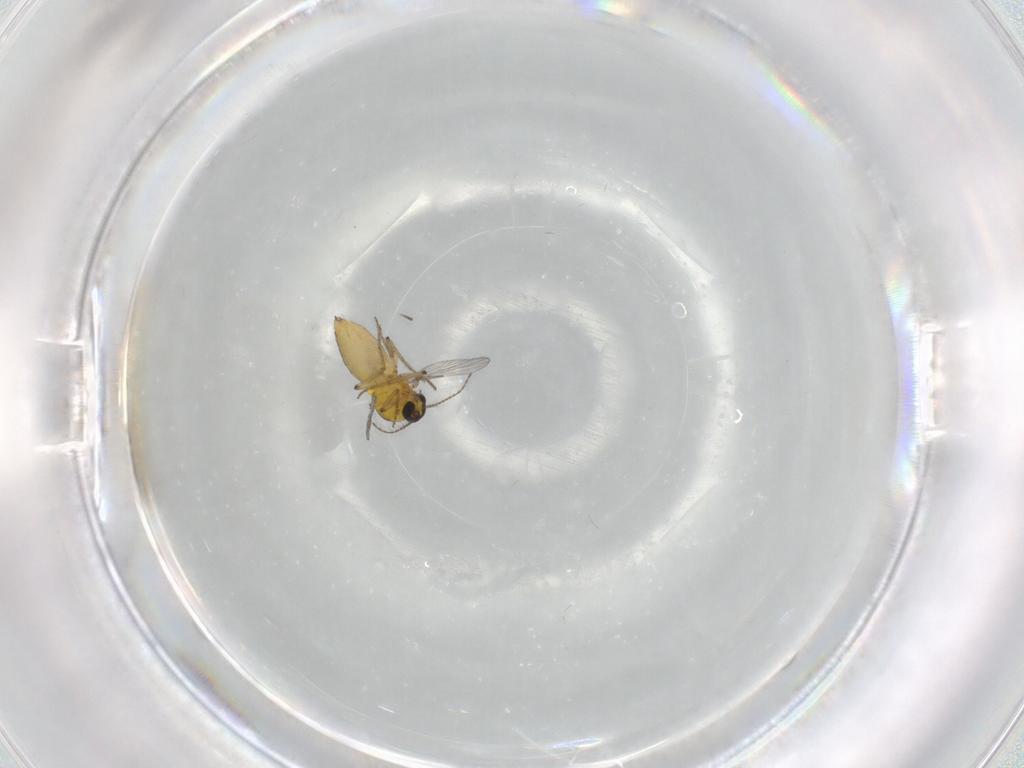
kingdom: Animalia
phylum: Arthropoda
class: Insecta
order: Diptera
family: Ceratopogonidae
